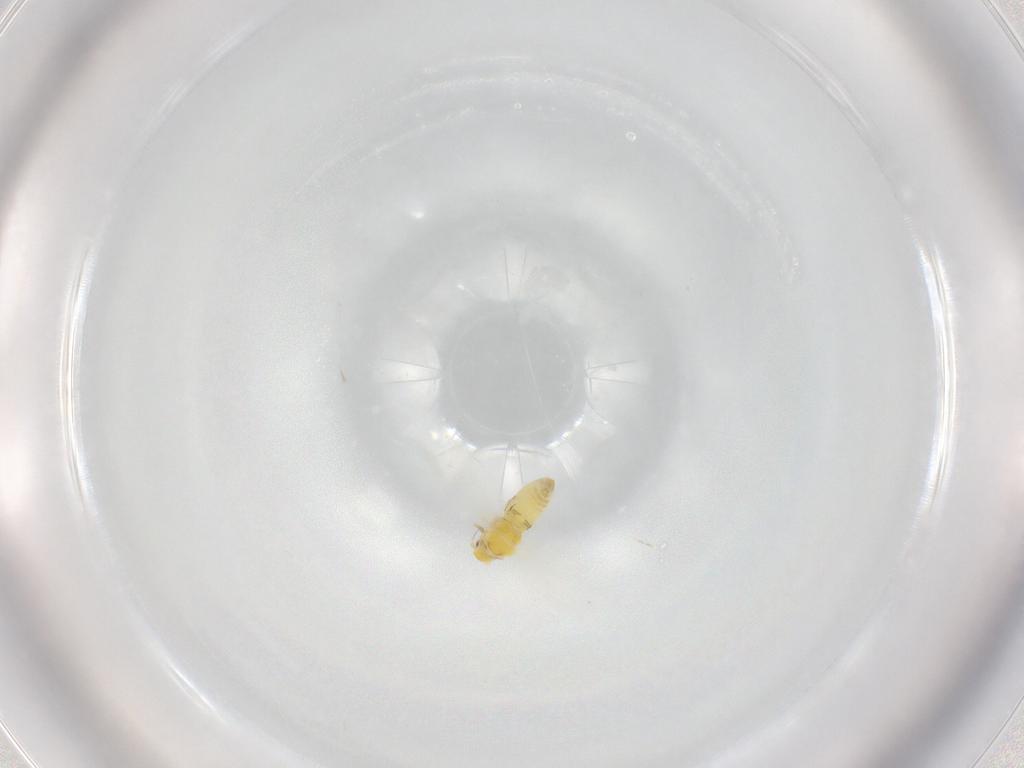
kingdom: Animalia
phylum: Arthropoda
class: Insecta
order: Hemiptera
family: Aleyrodidae
